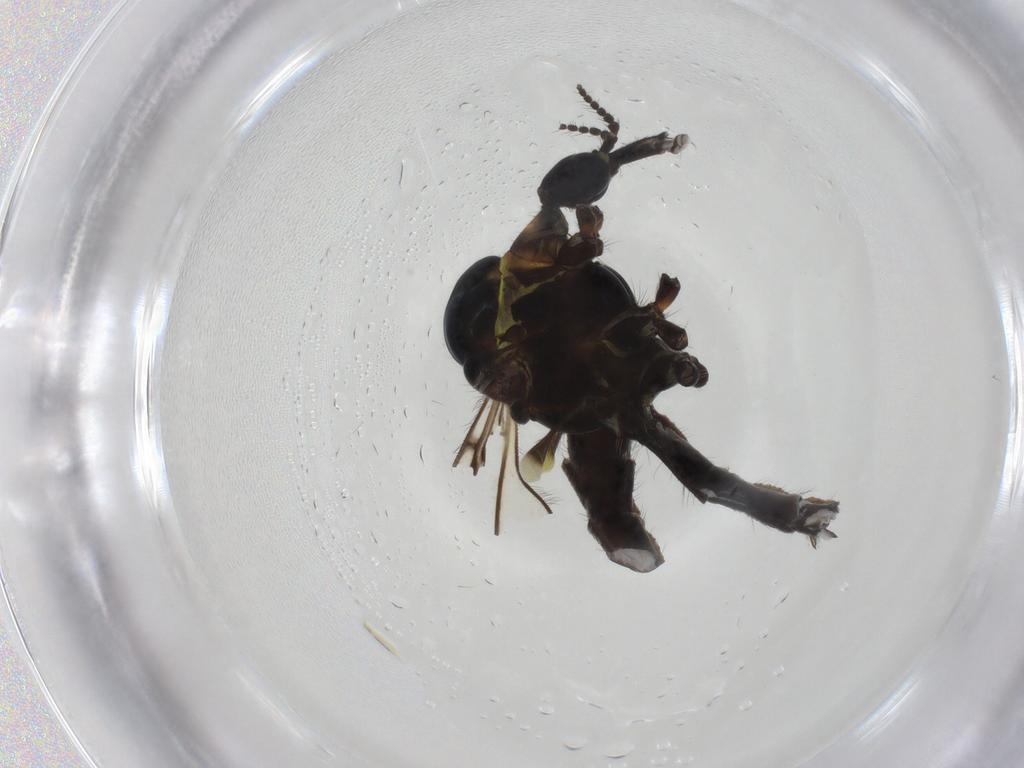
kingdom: Animalia
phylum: Arthropoda
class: Insecta
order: Diptera
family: Limoniidae
